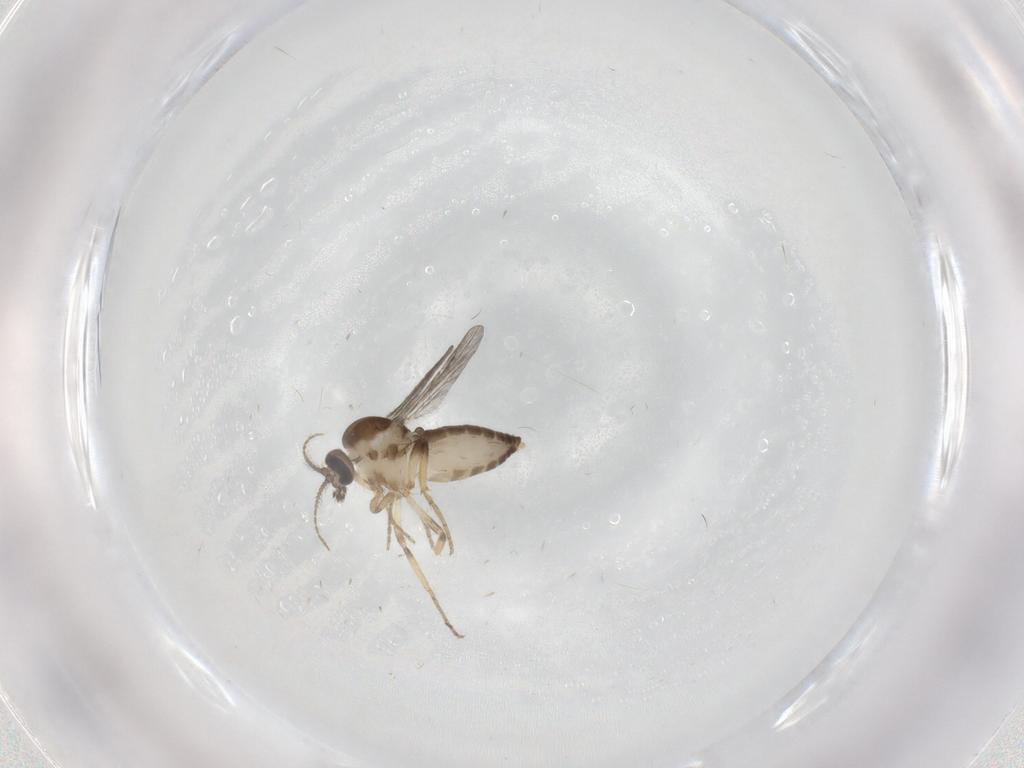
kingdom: Animalia
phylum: Arthropoda
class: Insecta
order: Diptera
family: Ceratopogonidae
